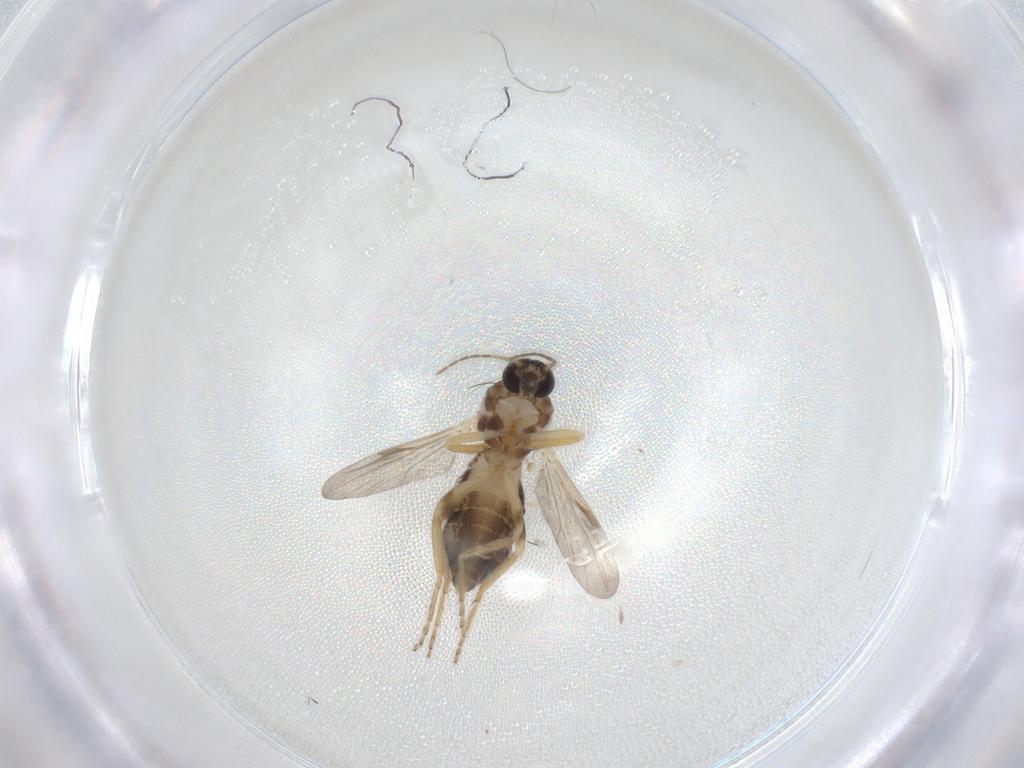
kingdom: Animalia
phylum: Arthropoda
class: Insecta
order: Diptera
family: Ceratopogonidae
